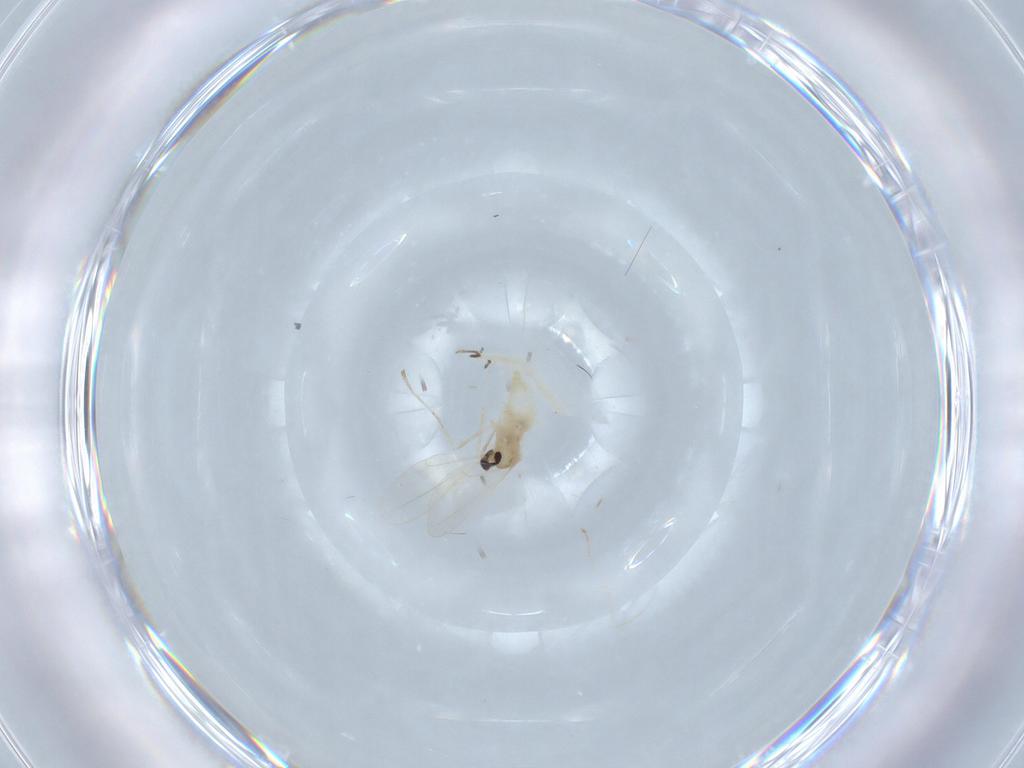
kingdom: Animalia
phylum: Arthropoda
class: Insecta
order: Diptera
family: Cecidomyiidae
